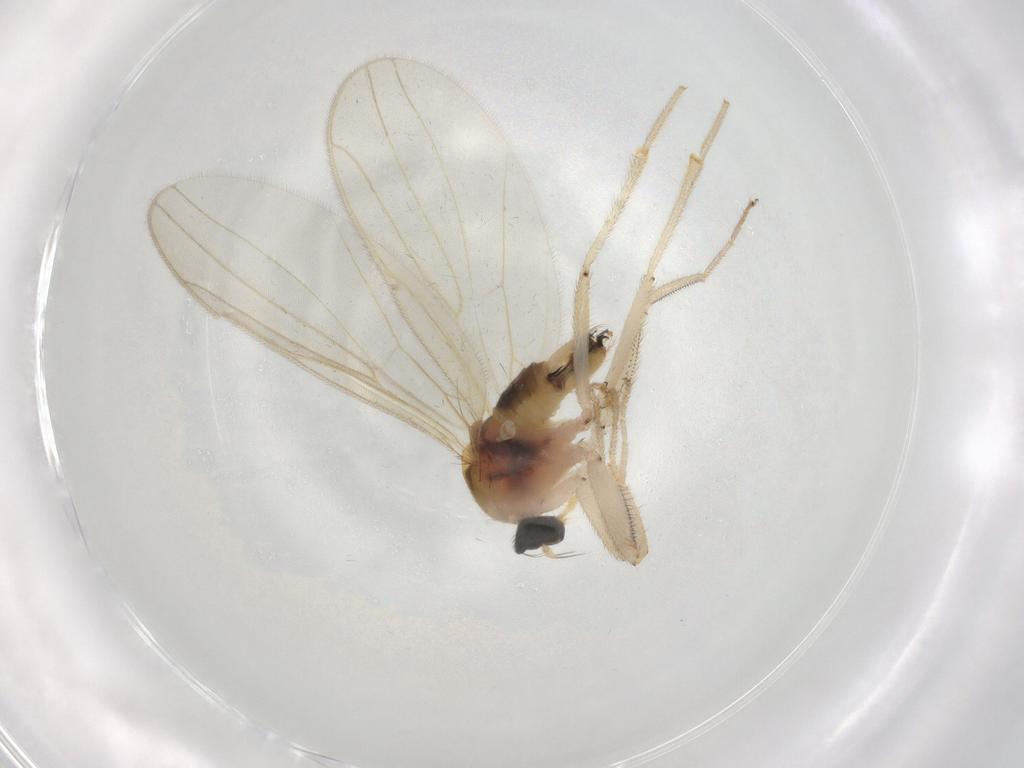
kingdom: Animalia
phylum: Arthropoda
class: Insecta
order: Diptera
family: Hybotidae
